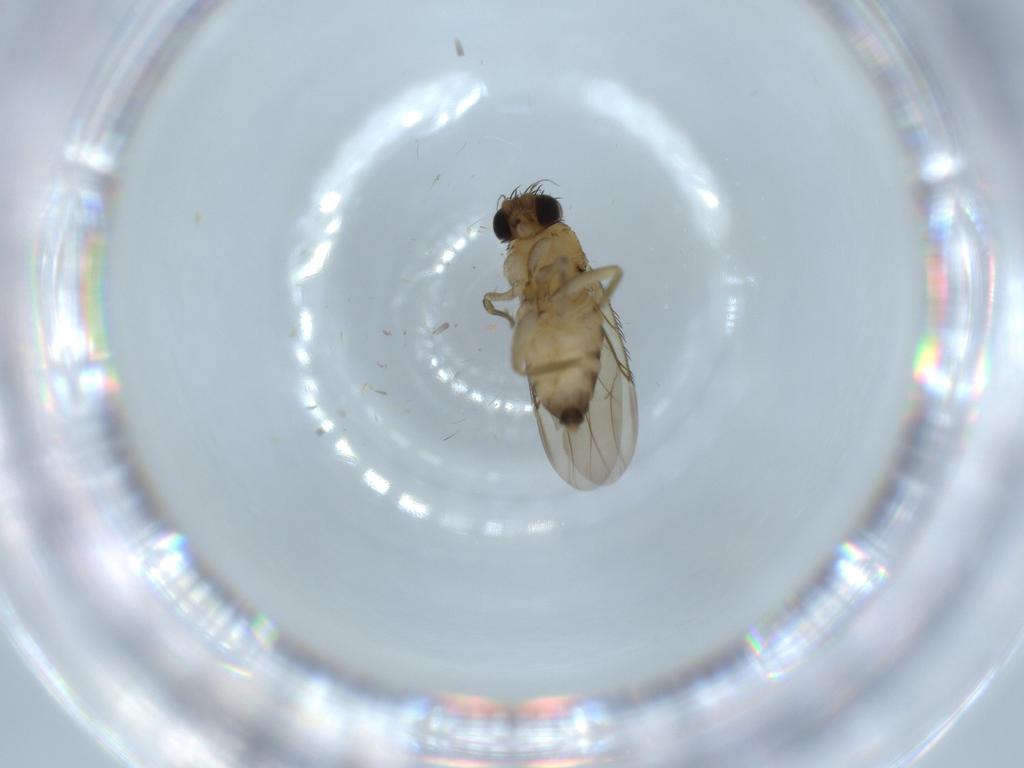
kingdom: Animalia
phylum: Arthropoda
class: Insecta
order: Diptera
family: Phoridae
